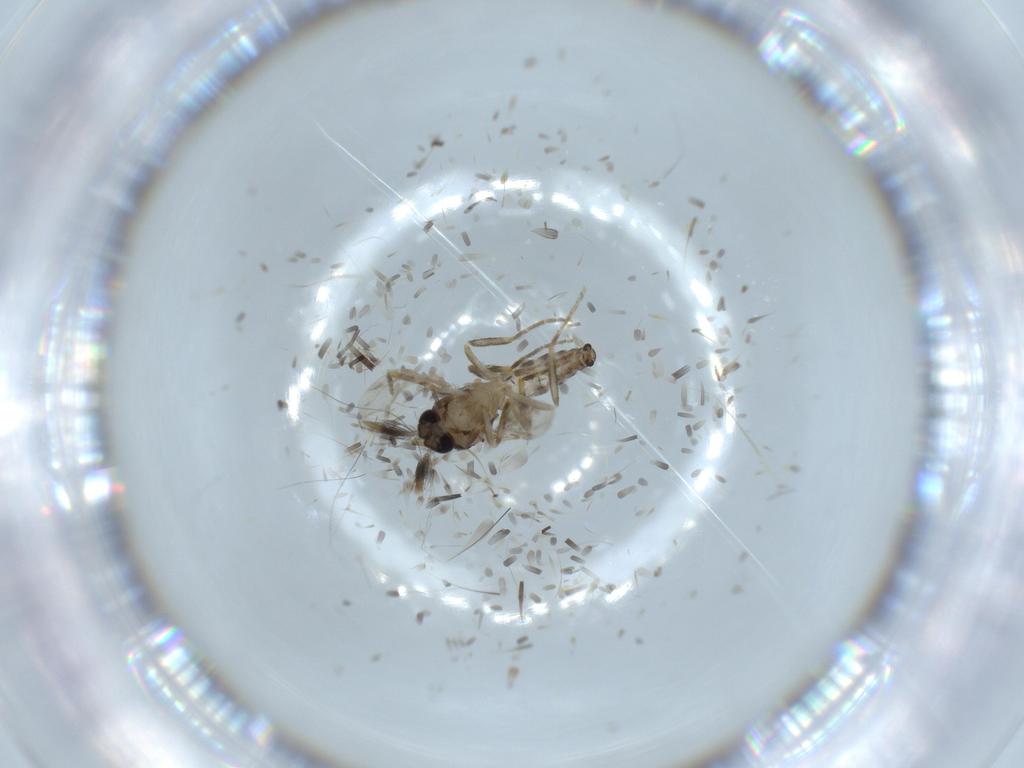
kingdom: Animalia
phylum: Arthropoda
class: Insecta
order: Diptera
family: Ceratopogonidae
